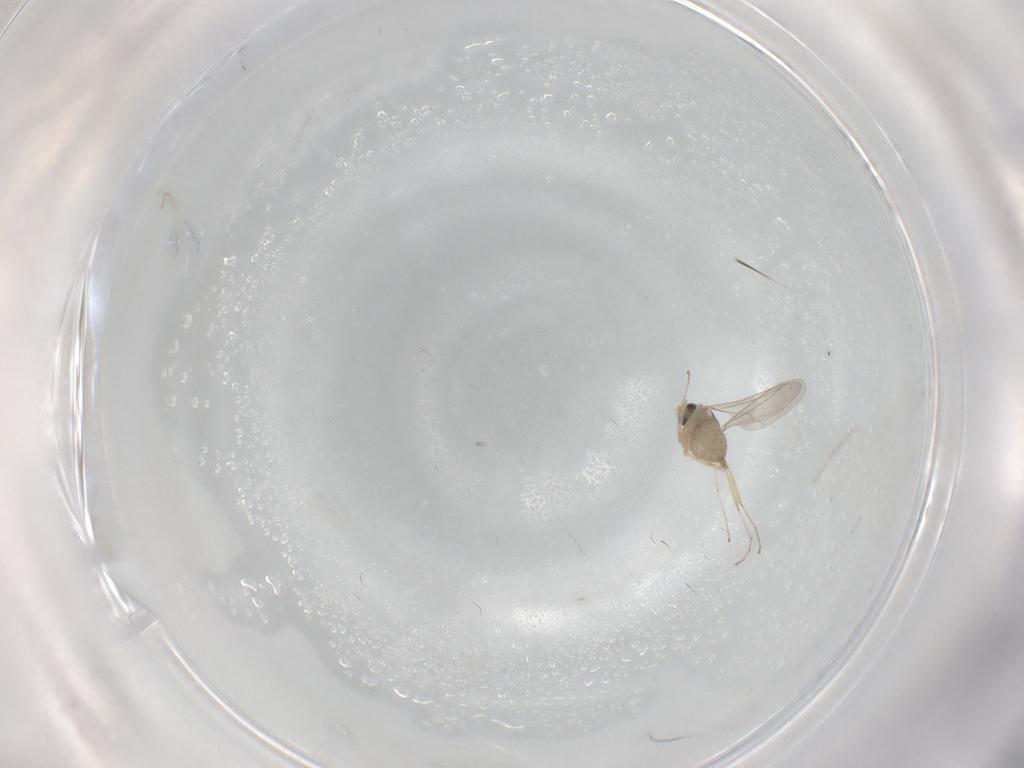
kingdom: Animalia
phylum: Arthropoda
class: Insecta
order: Diptera
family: Cecidomyiidae
